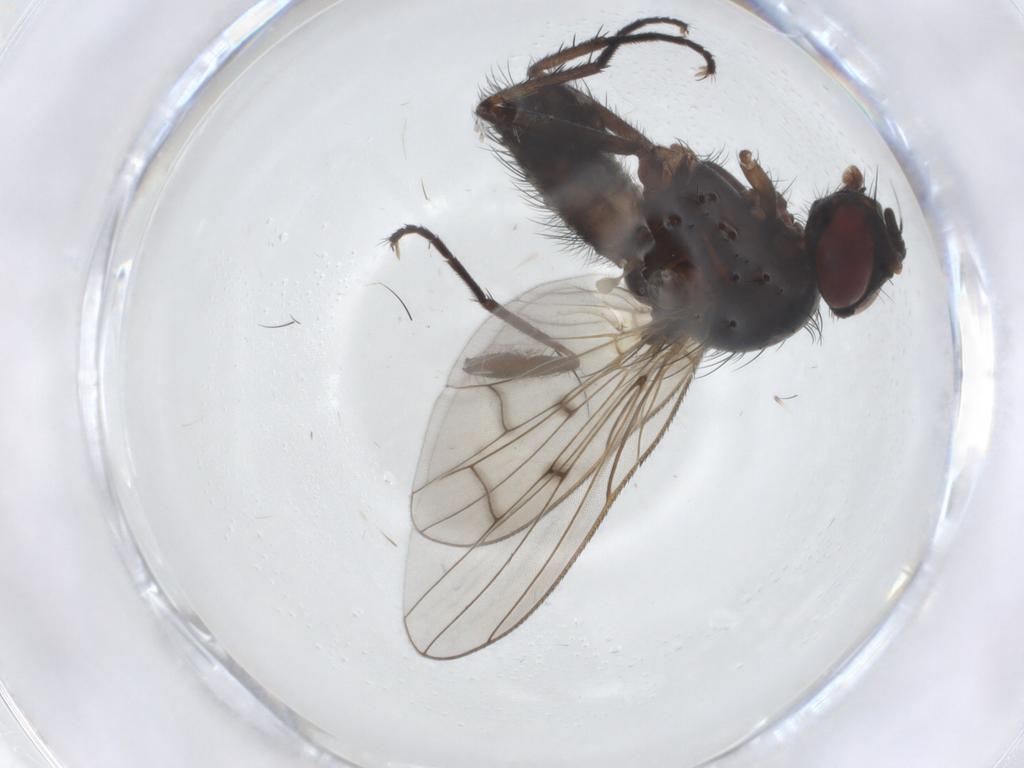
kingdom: Animalia
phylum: Arthropoda
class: Insecta
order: Diptera
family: Anthomyiidae
